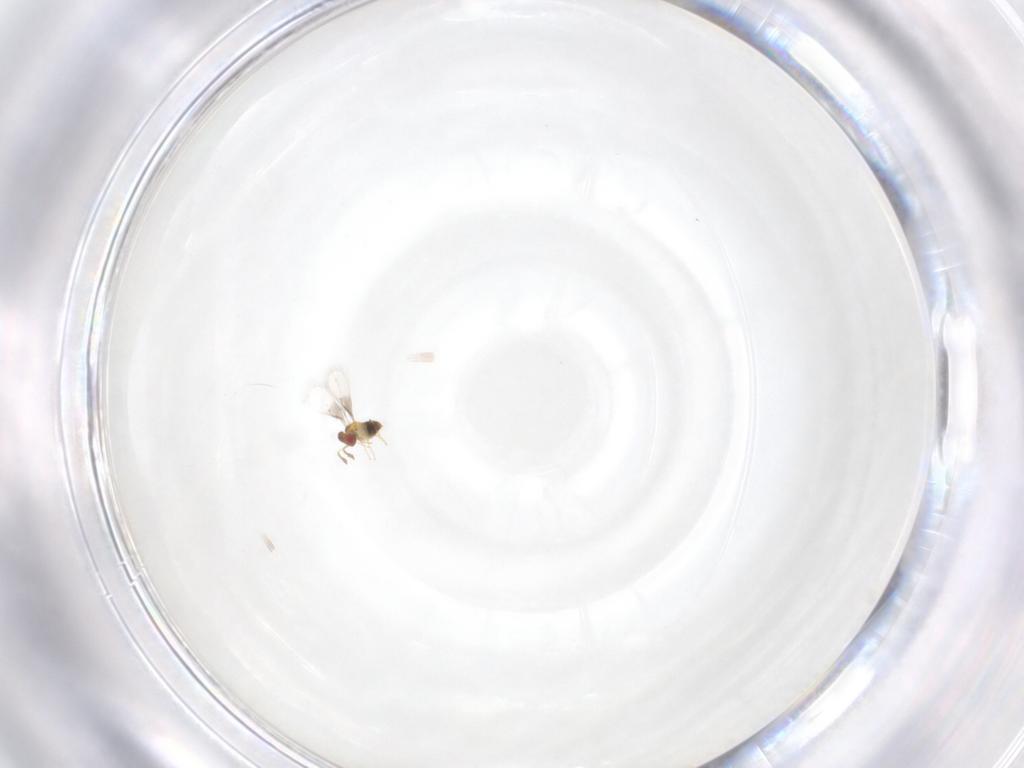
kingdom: Animalia
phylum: Arthropoda
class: Insecta
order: Hymenoptera
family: Trichogrammatidae
